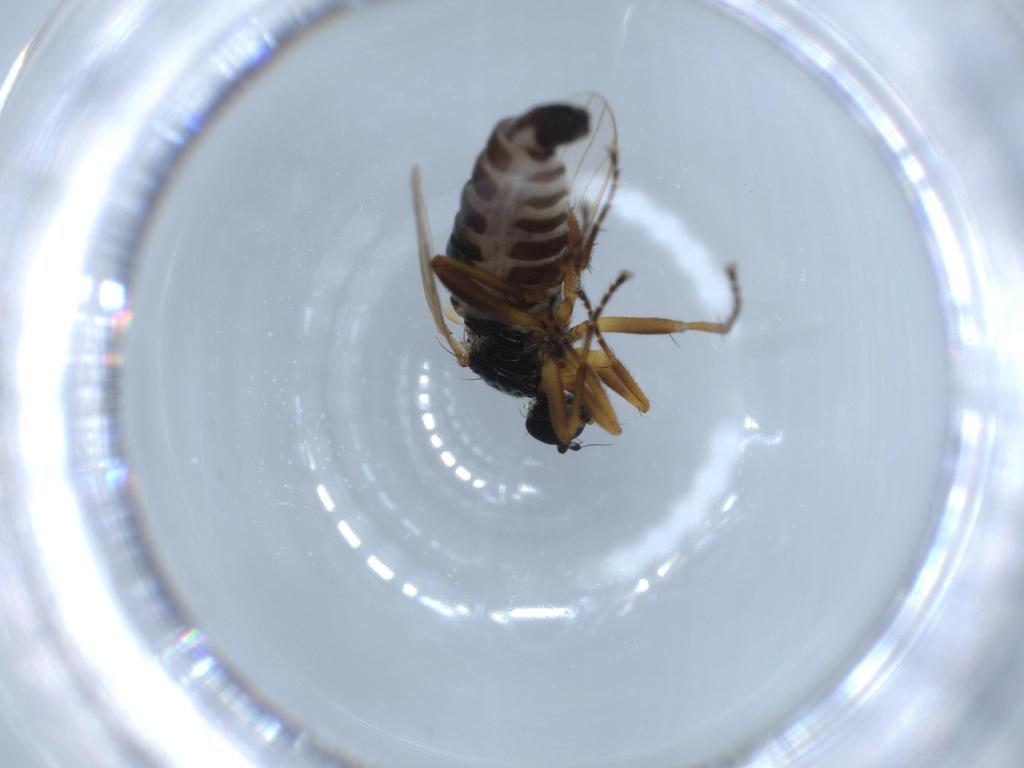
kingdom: Animalia
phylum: Arthropoda
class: Insecta
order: Diptera
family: Hybotidae
